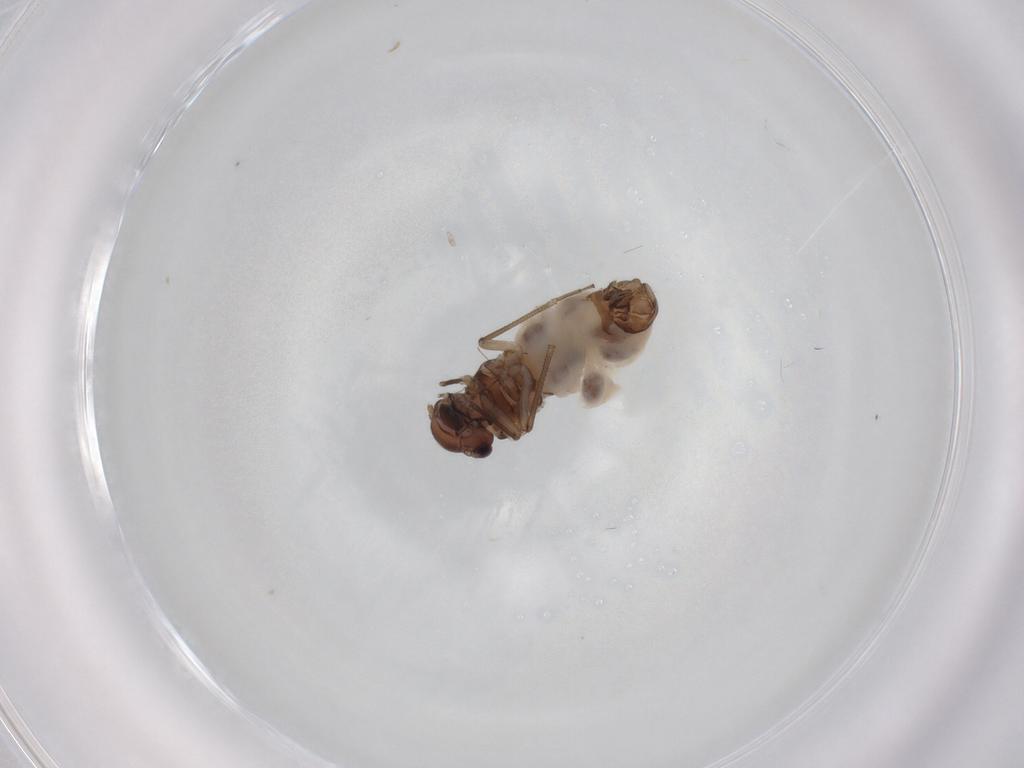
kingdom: Animalia
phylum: Arthropoda
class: Insecta
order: Psocodea
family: Peripsocidae
